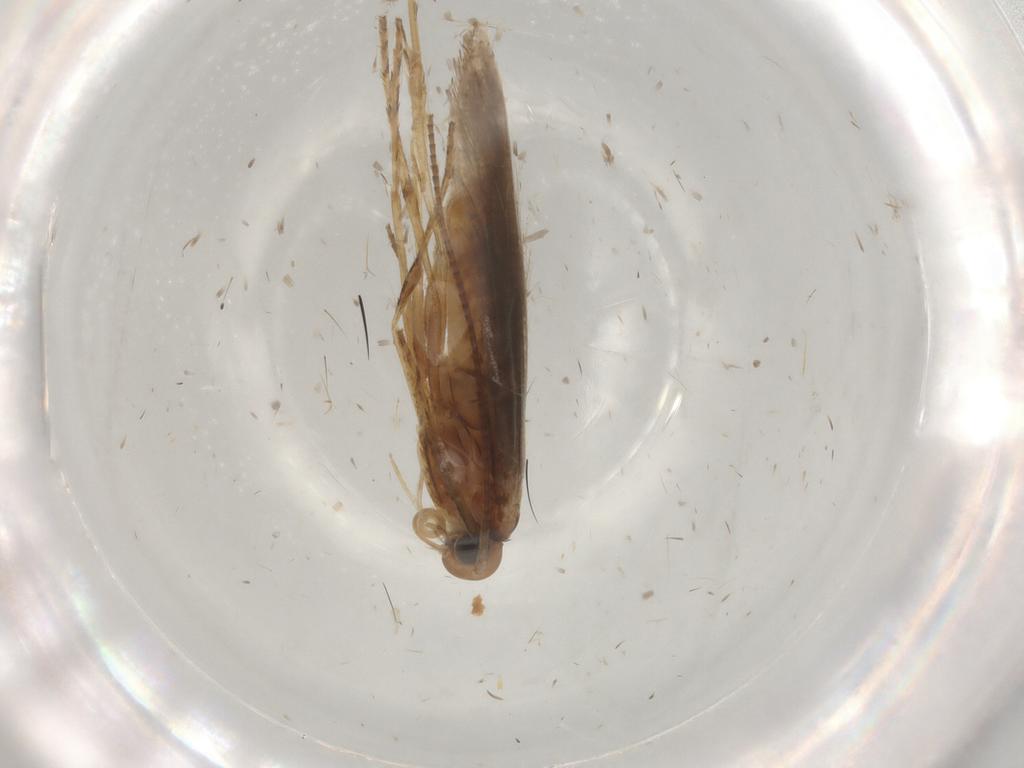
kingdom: Animalia
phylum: Arthropoda
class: Insecta
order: Lepidoptera
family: Gracillariidae
